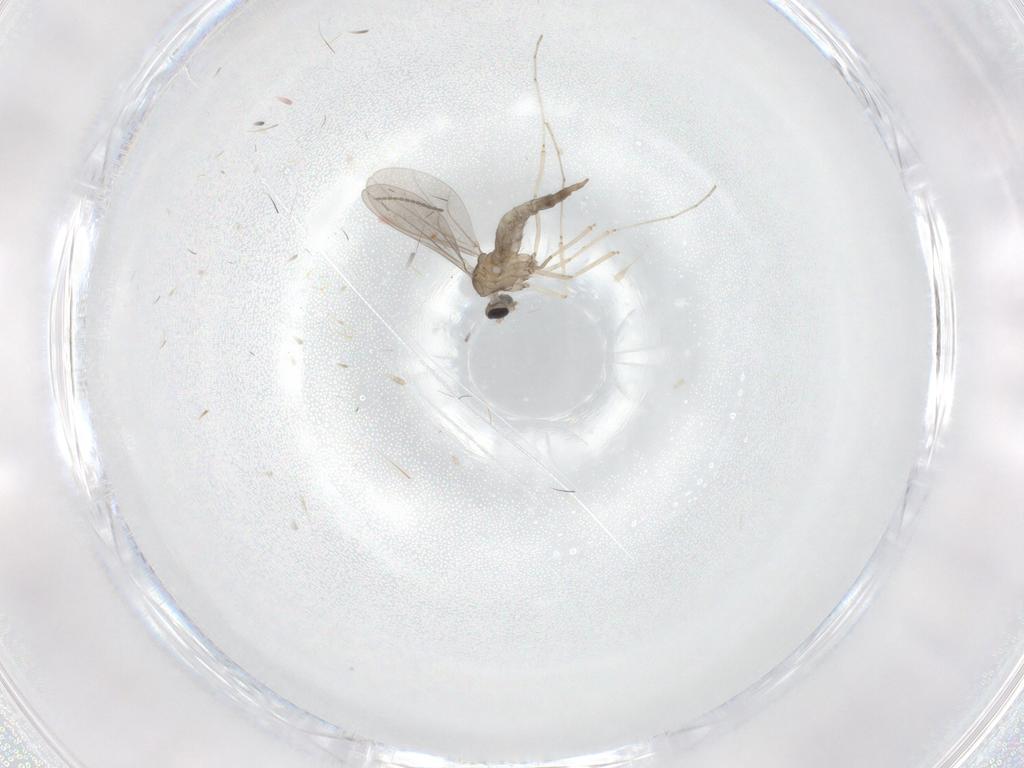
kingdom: Animalia
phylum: Arthropoda
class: Insecta
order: Diptera
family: Cecidomyiidae
